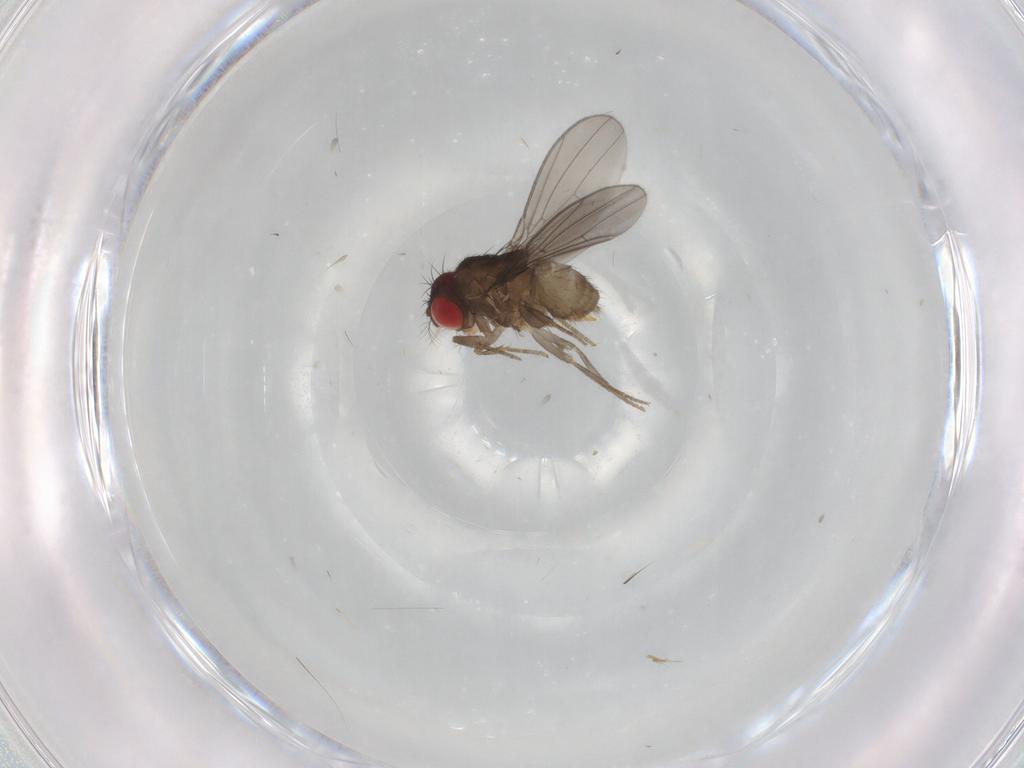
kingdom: Animalia
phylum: Arthropoda
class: Insecta
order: Diptera
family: Drosophilidae
